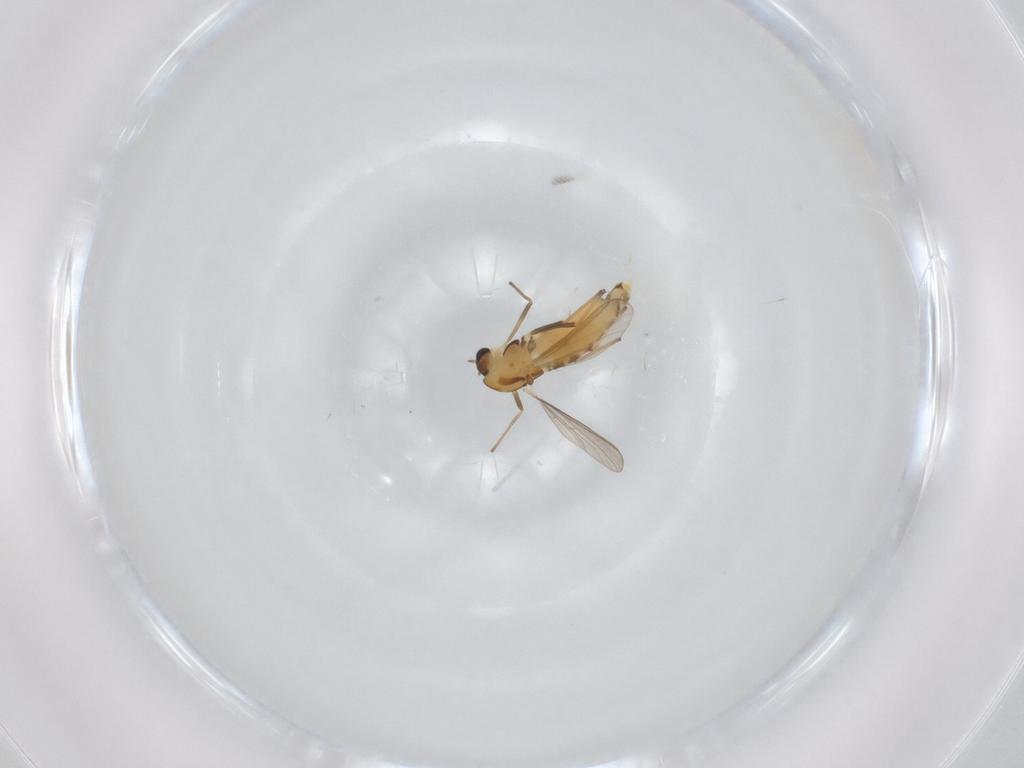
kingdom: Animalia
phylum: Arthropoda
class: Insecta
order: Diptera
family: Chironomidae
